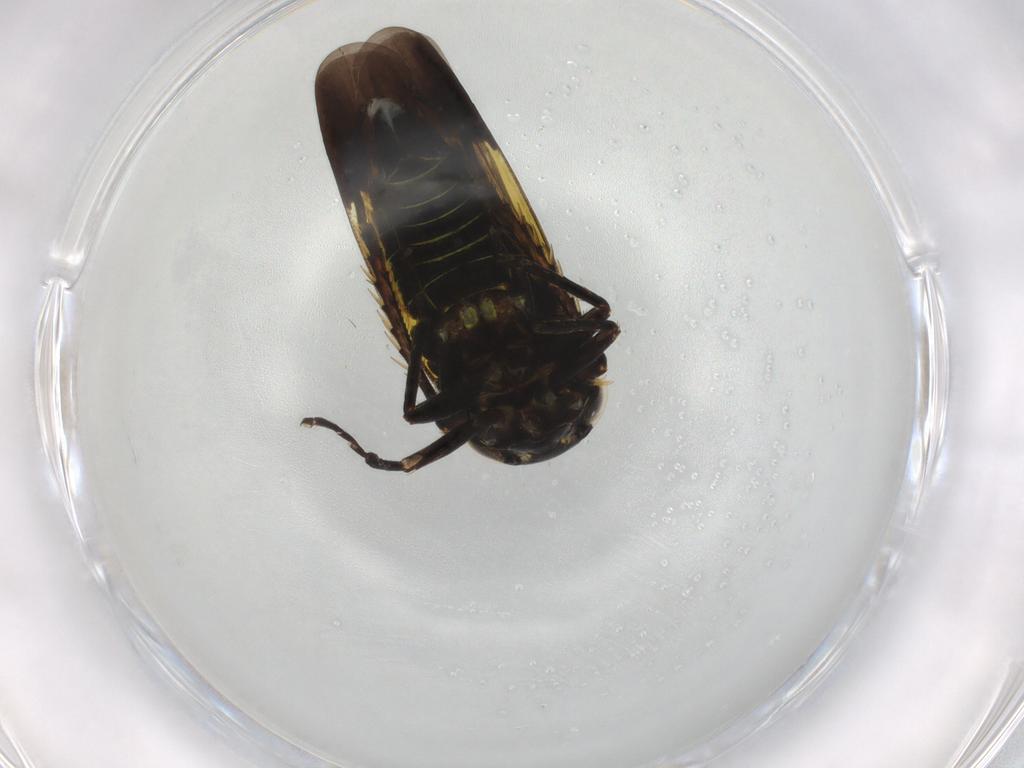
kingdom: Animalia
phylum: Arthropoda
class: Insecta
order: Hemiptera
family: Cicadellidae
